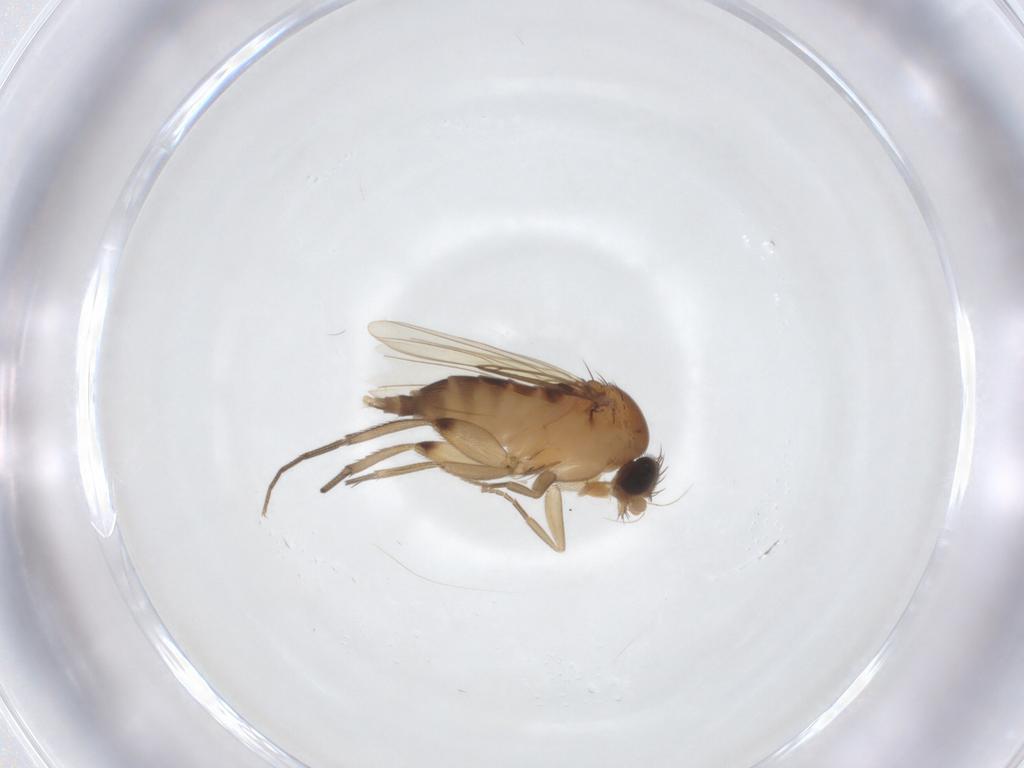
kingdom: Animalia
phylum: Arthropoda
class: Insecta
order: Diptera
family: Phoridae
